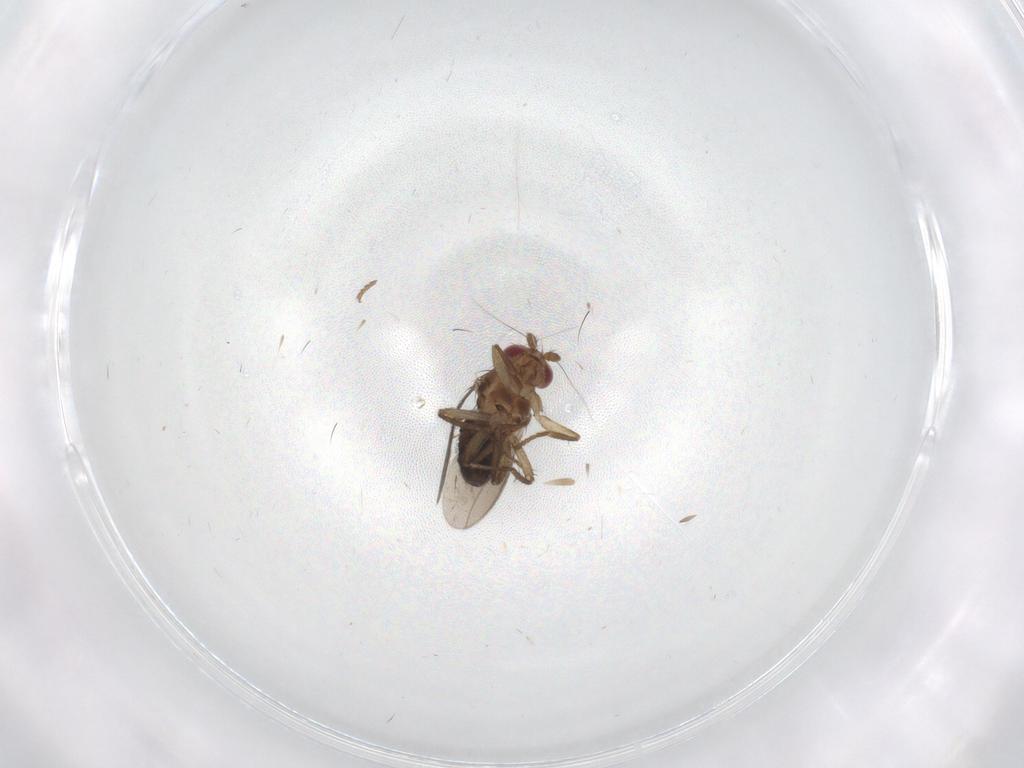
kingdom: Animalia
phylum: Arthropoda
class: Insecta
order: Diptera
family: Sphaeroceridae
